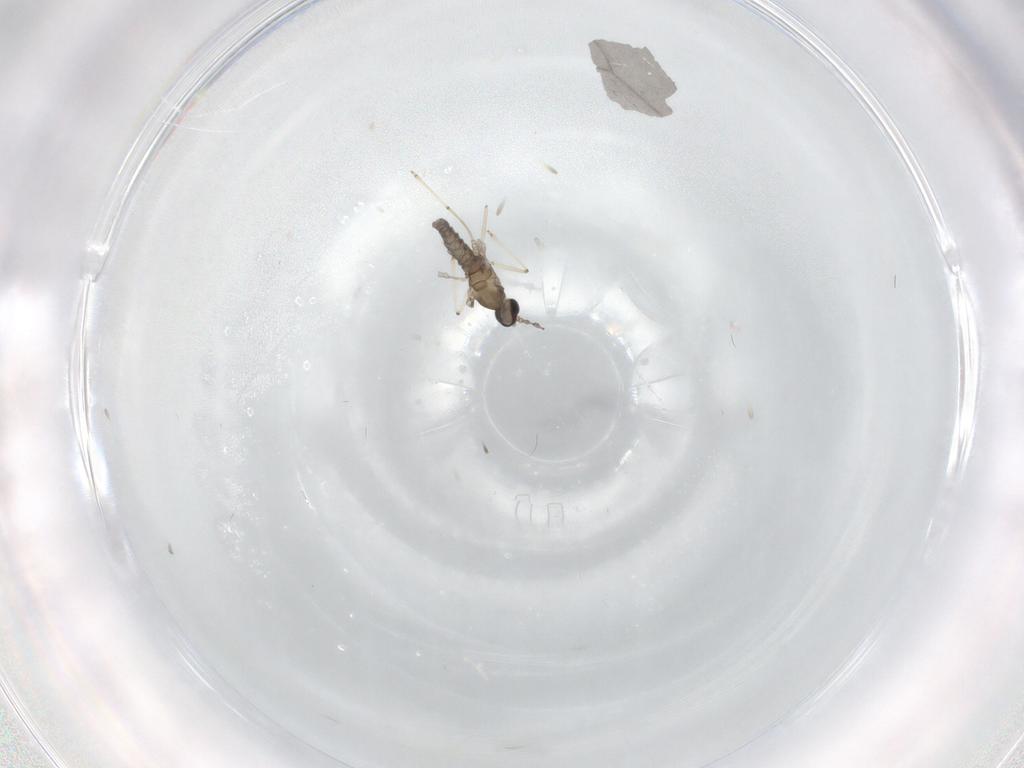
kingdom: Animalia
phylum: Arthropoda
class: Insecta
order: Diptera
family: Cecidomyiidae
